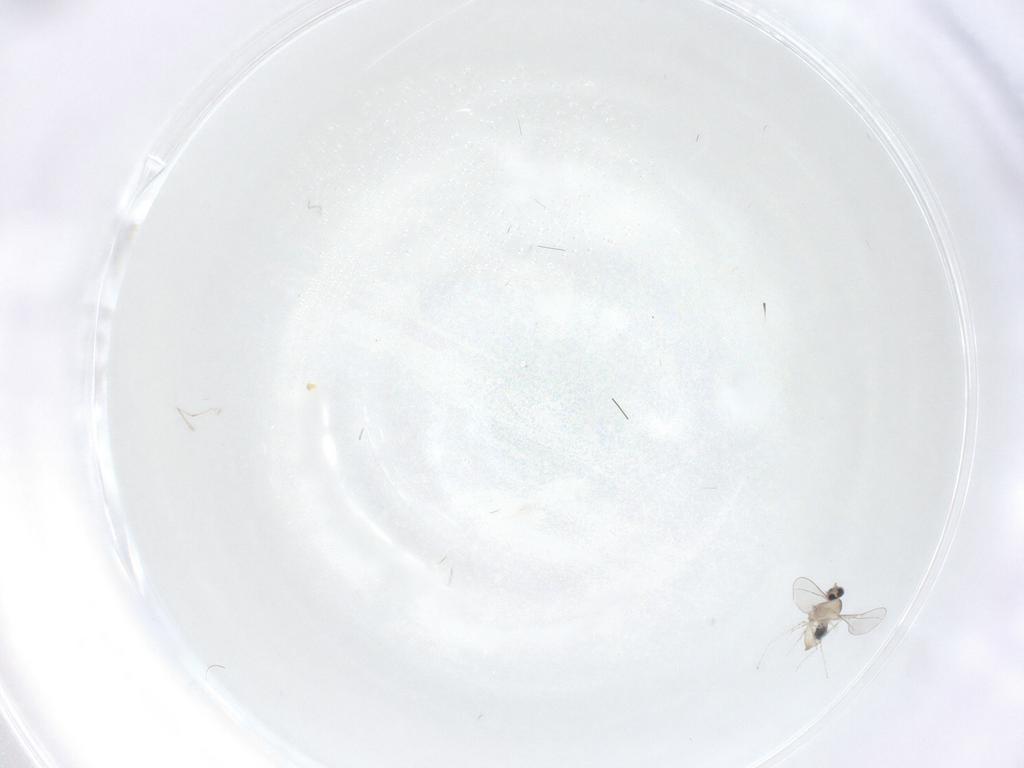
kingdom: Animalia
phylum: Arthropoda
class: Insecta
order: Diptera
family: Cecidomyiidae
